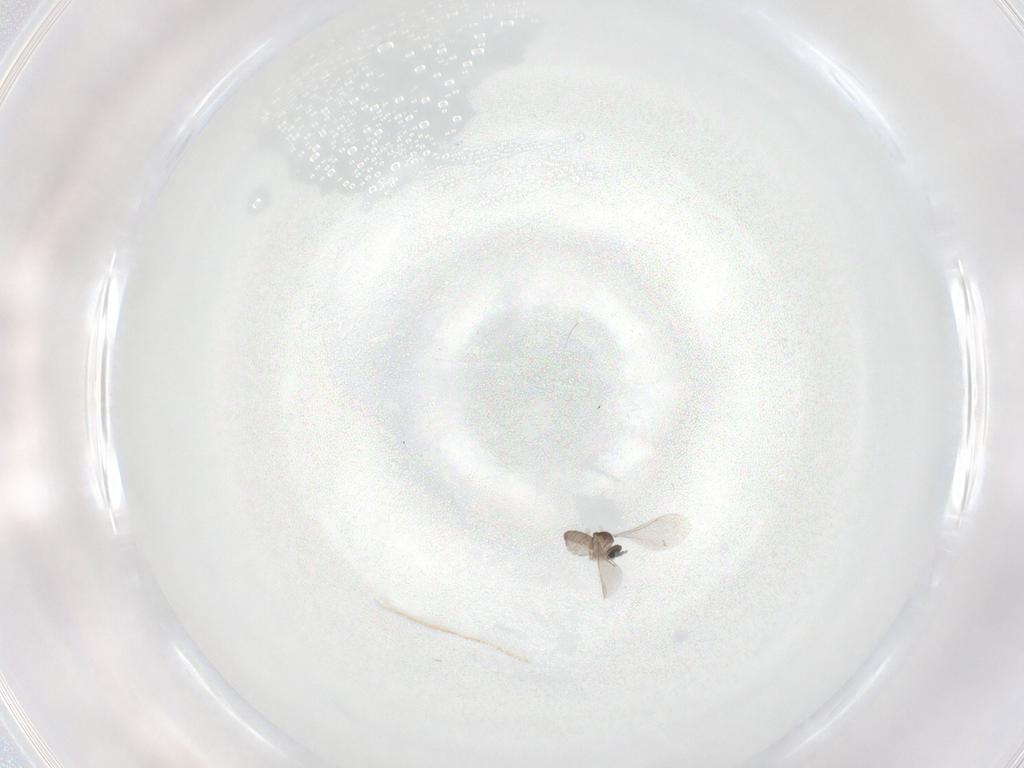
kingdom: Animalia
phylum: Arthropoda
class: Insecta
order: Diptera
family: Cecidomyiidae
